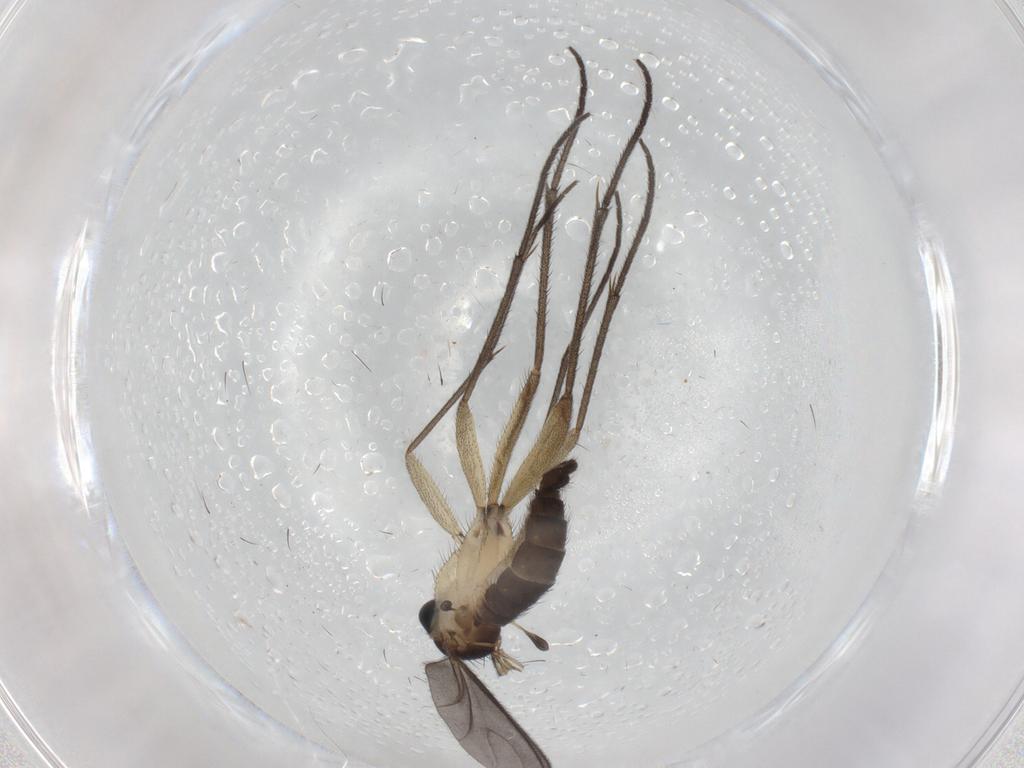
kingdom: Animalia
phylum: Arthropoda
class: Insecta
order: Diptera
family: Sciaridae
